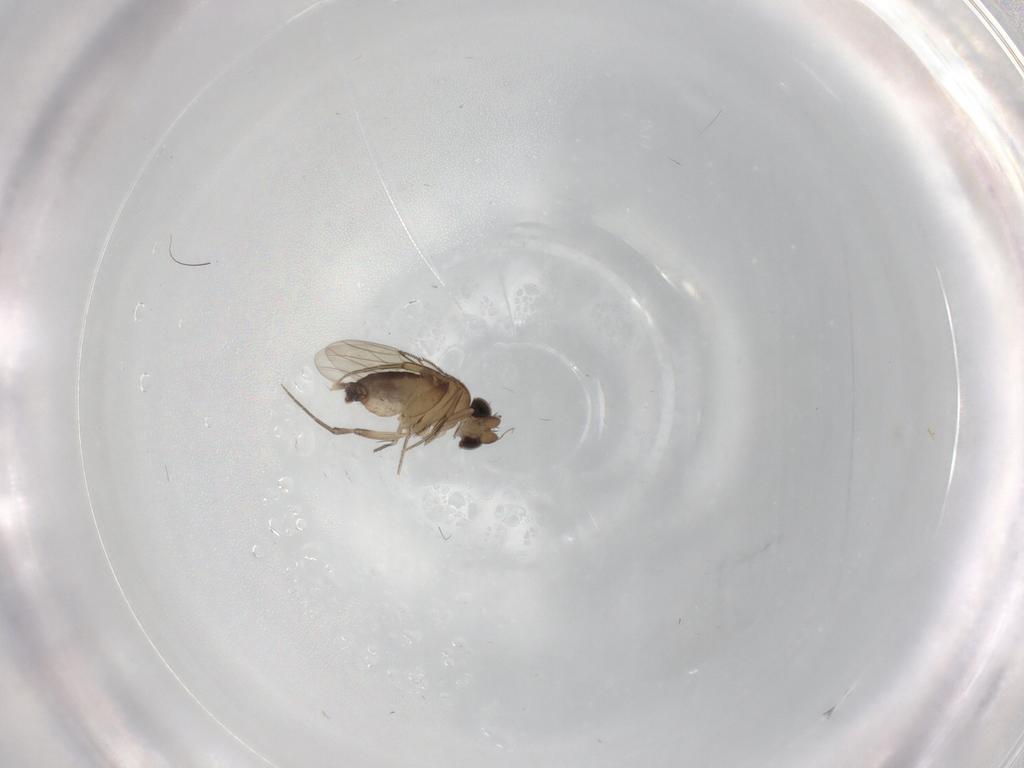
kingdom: Animalia
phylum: Arthropoda
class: Insecta
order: Diptera
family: Phoridae
